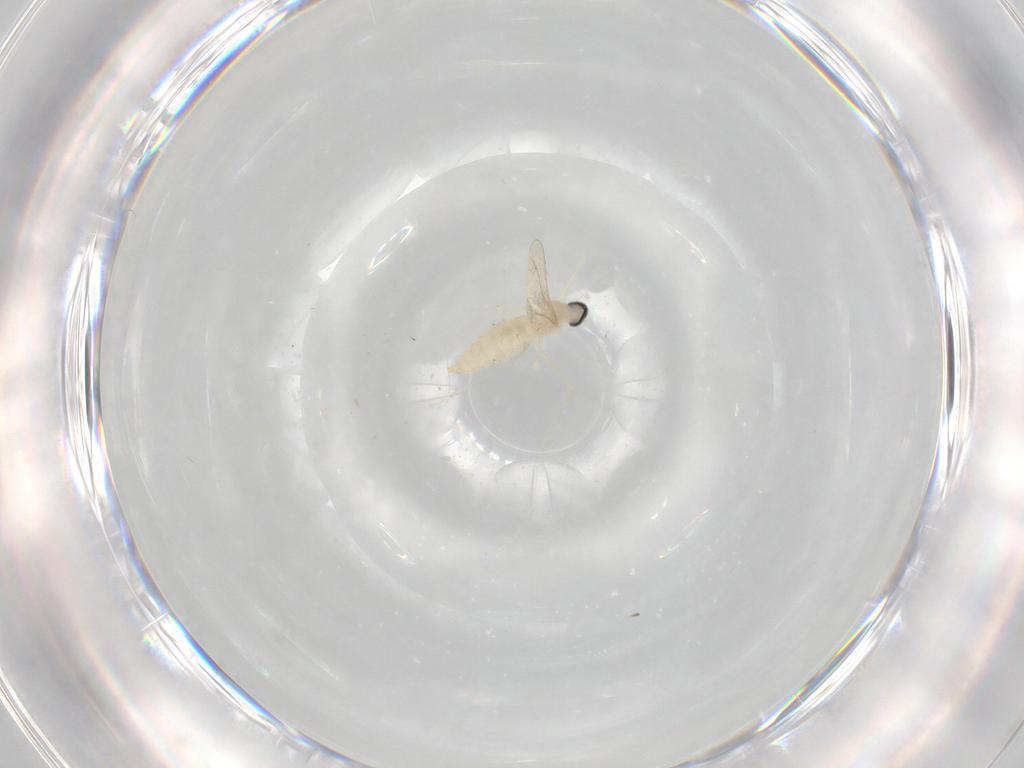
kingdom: Animalia
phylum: Arthropoda
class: Insecta
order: Diptera
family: Cecidomyiidae
